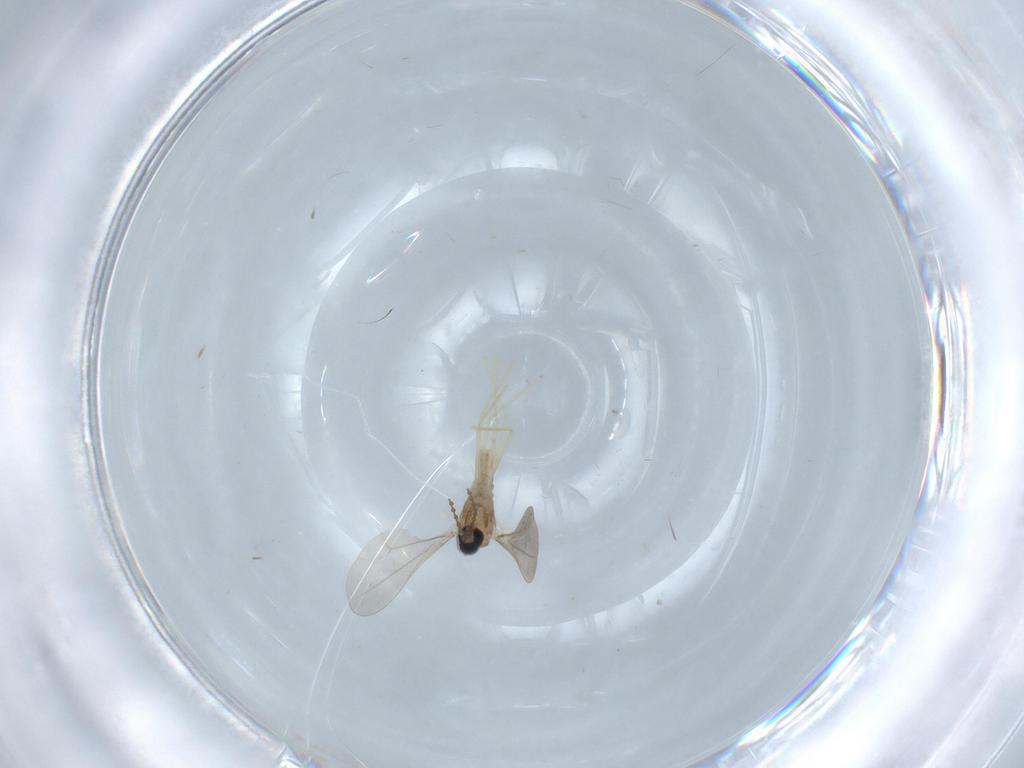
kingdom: Animalia
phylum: Arthropoda
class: Insecta
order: Diptera
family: Cecidomyiidae
